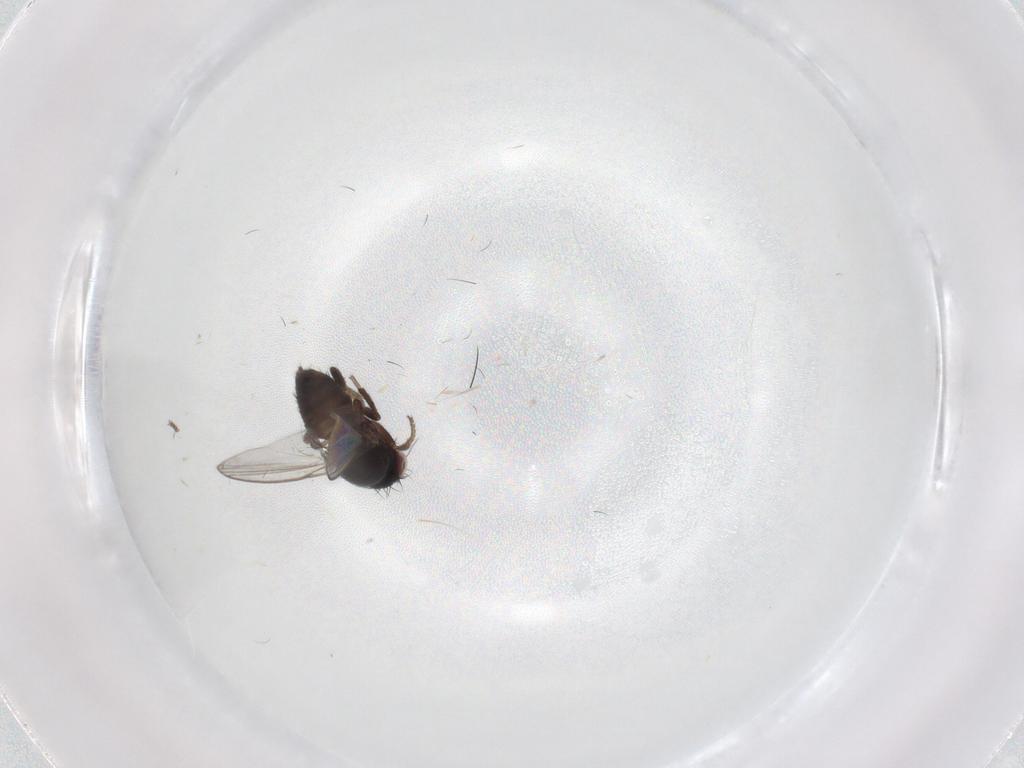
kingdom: Animalia
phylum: Arthropoda
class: Insecta
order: Diptera
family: Milichiidae
